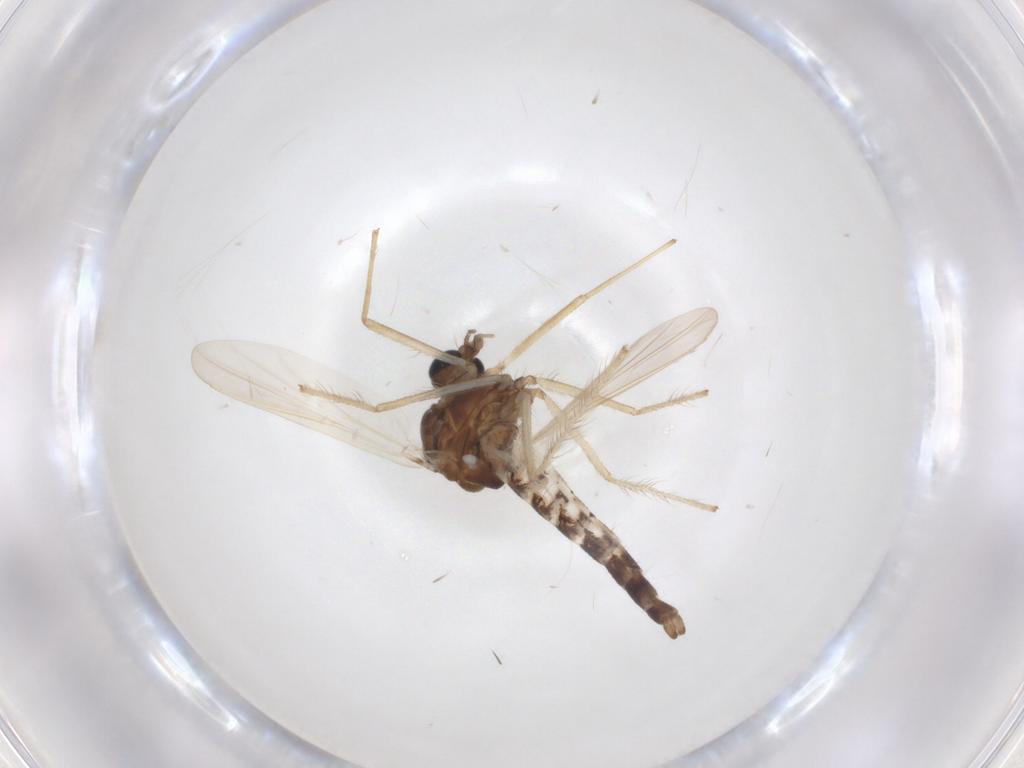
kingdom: Animalia
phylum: Arthropoda
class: Insecta
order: Diptera
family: Chironomidae
